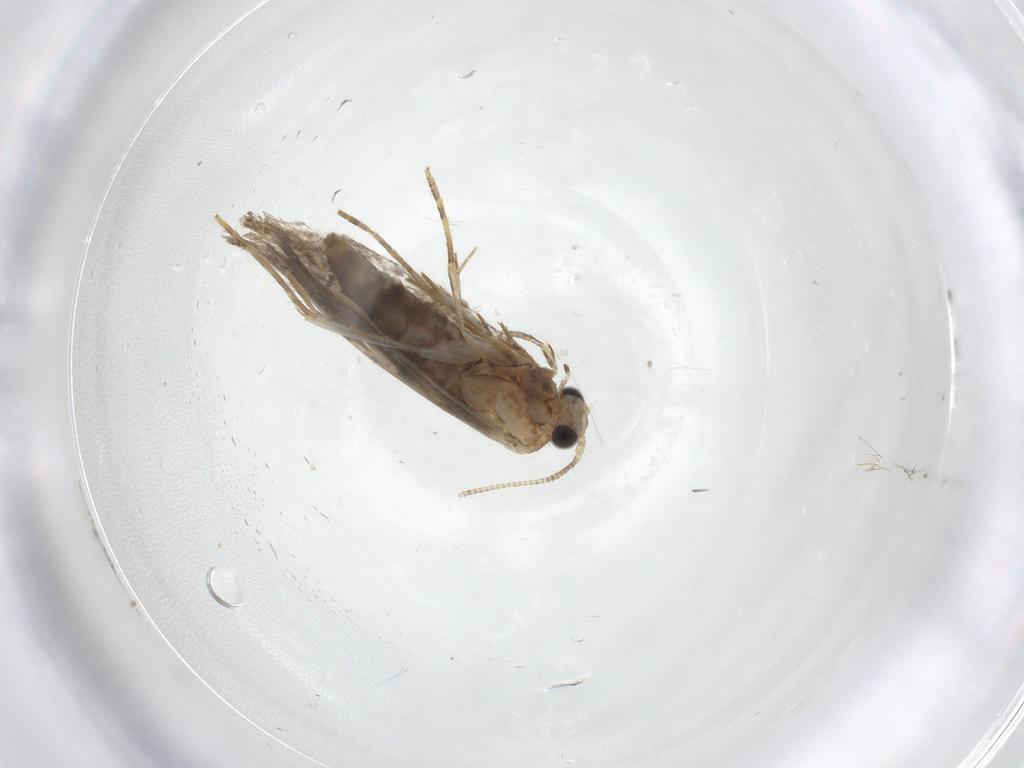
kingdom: Animalia
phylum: Arthropoda
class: Insecta
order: Lepidoptera
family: Gelechiidae
